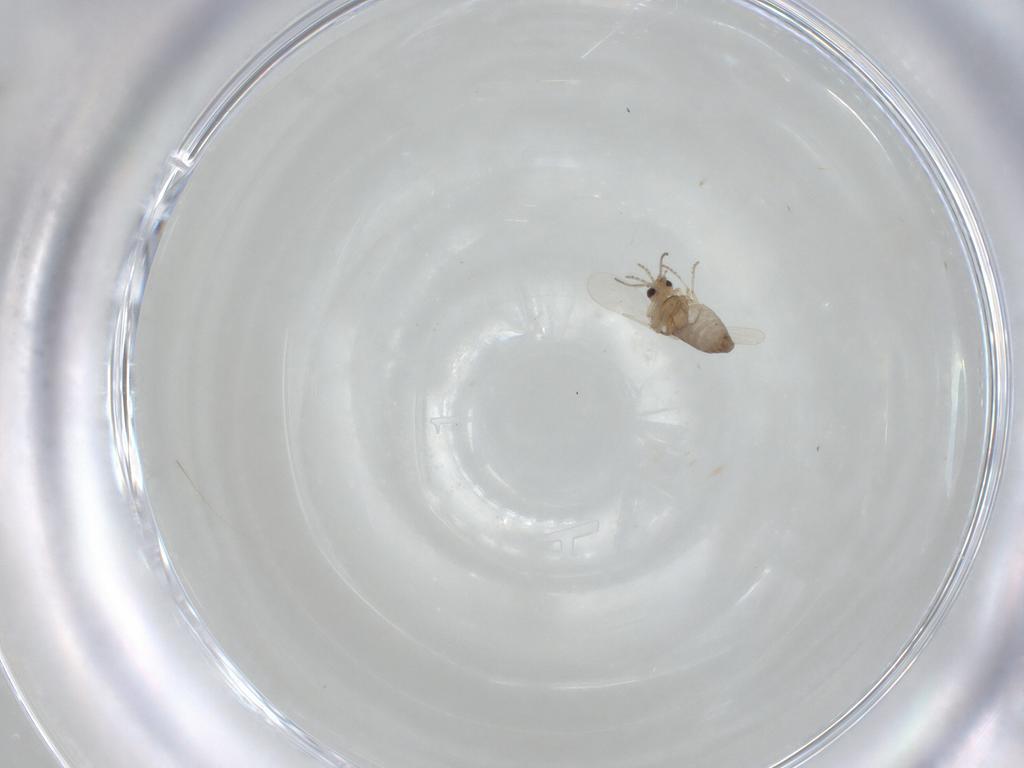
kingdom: Animalia
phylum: Arthropoda
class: Insecta
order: Diptera
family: Ceratopogonidae
